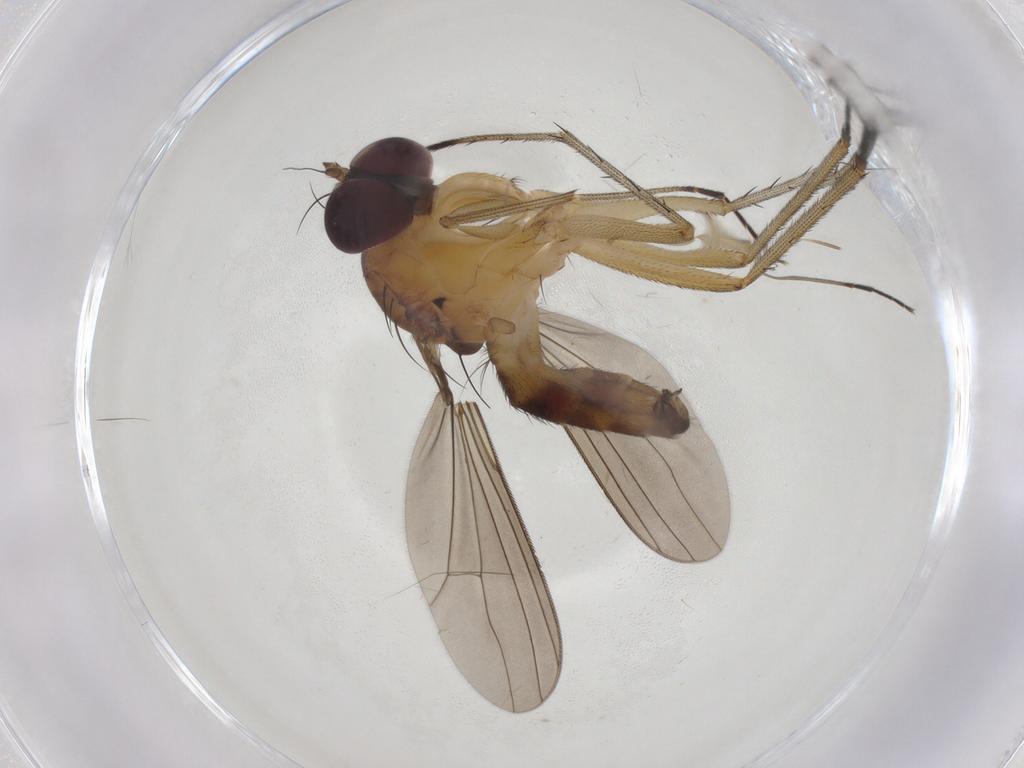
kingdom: Animalia
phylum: Arthropoda
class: Insecta
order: Diptera
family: Dolichopodidae
